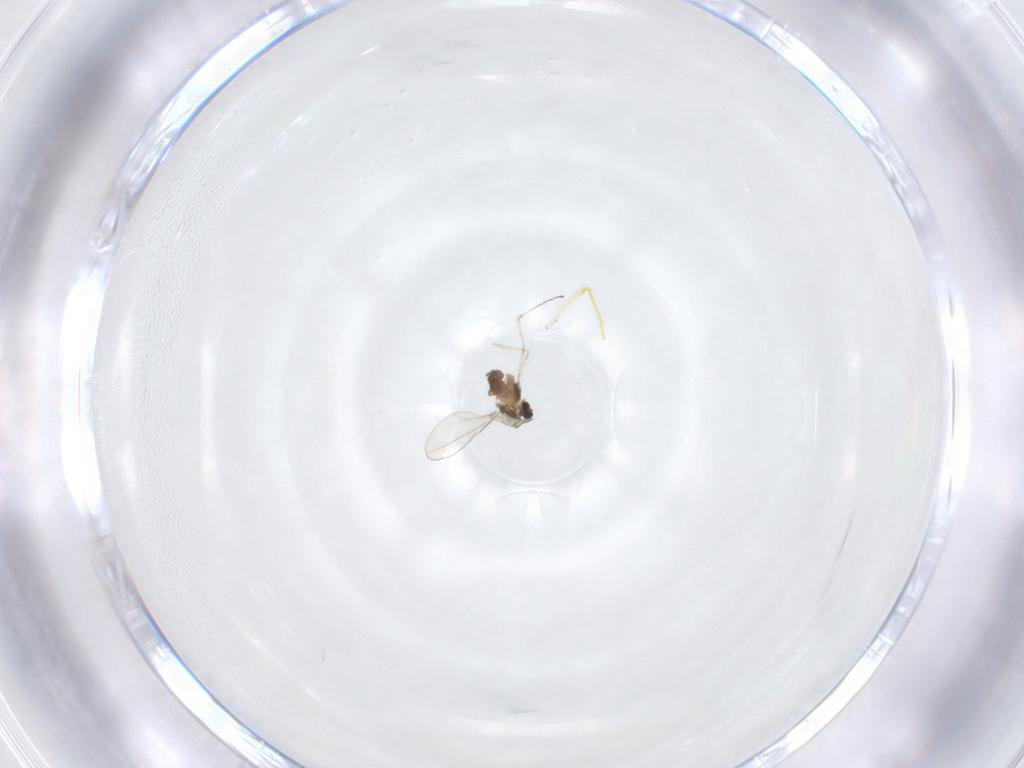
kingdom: Animalia
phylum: Arthropoda
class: Insecta
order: Diptera
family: Cecidomyiidae
